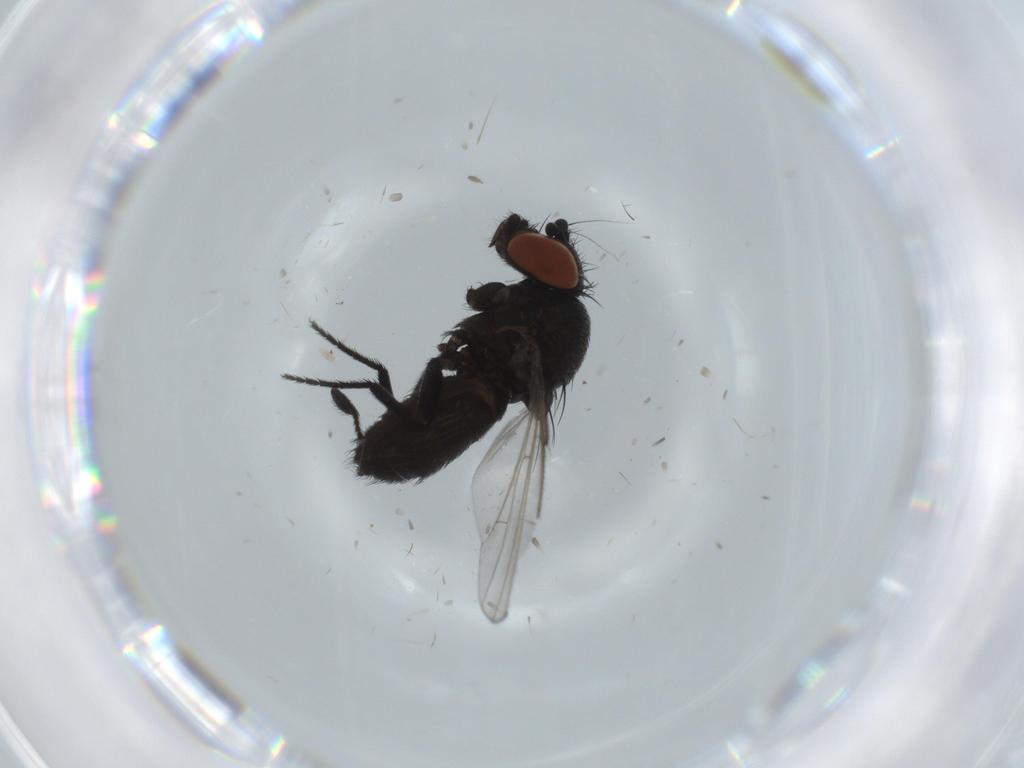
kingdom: Animalia
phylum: Arthropoda
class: Insecta
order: Diptera
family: Milichiidae
